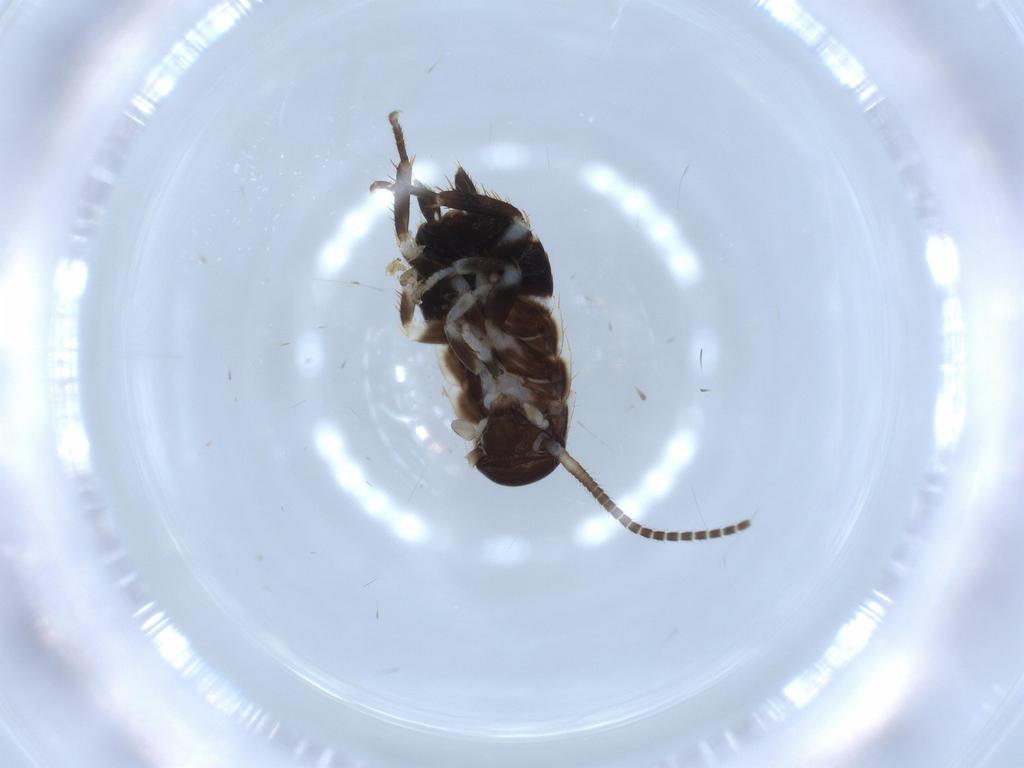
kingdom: Animalia
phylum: Arthropoda
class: Insecta
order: Blattodea
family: Ectobiidae
